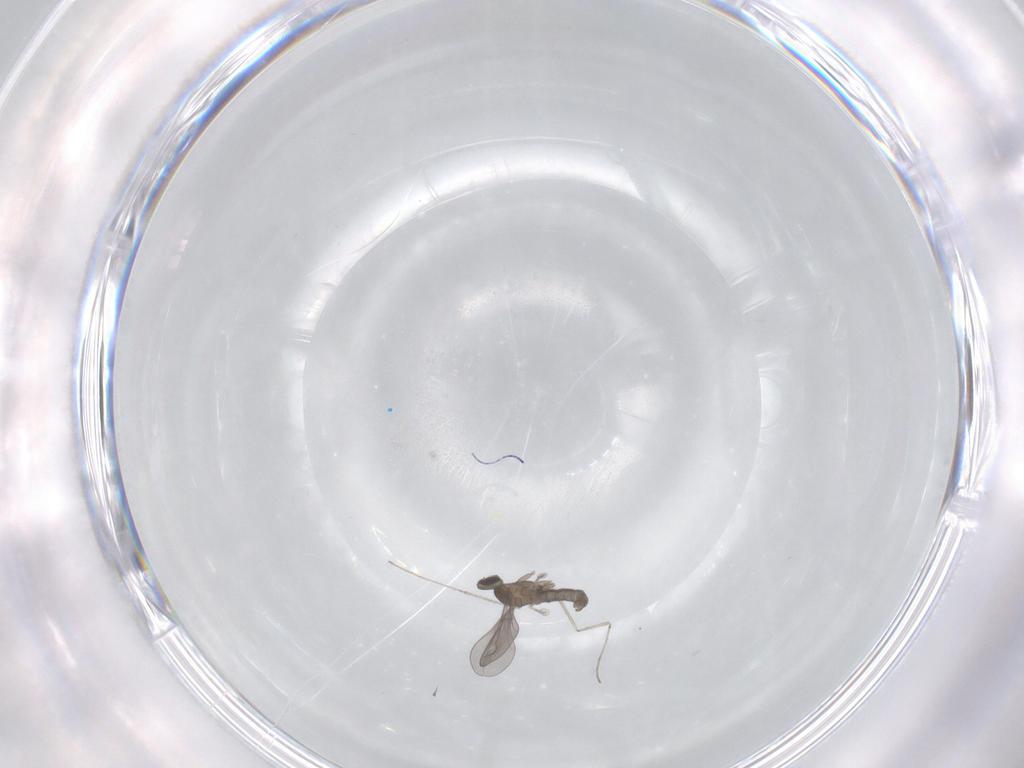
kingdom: Animalia
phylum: Arthropoda
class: Insecta
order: Diptera
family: Cecidomyiidae
